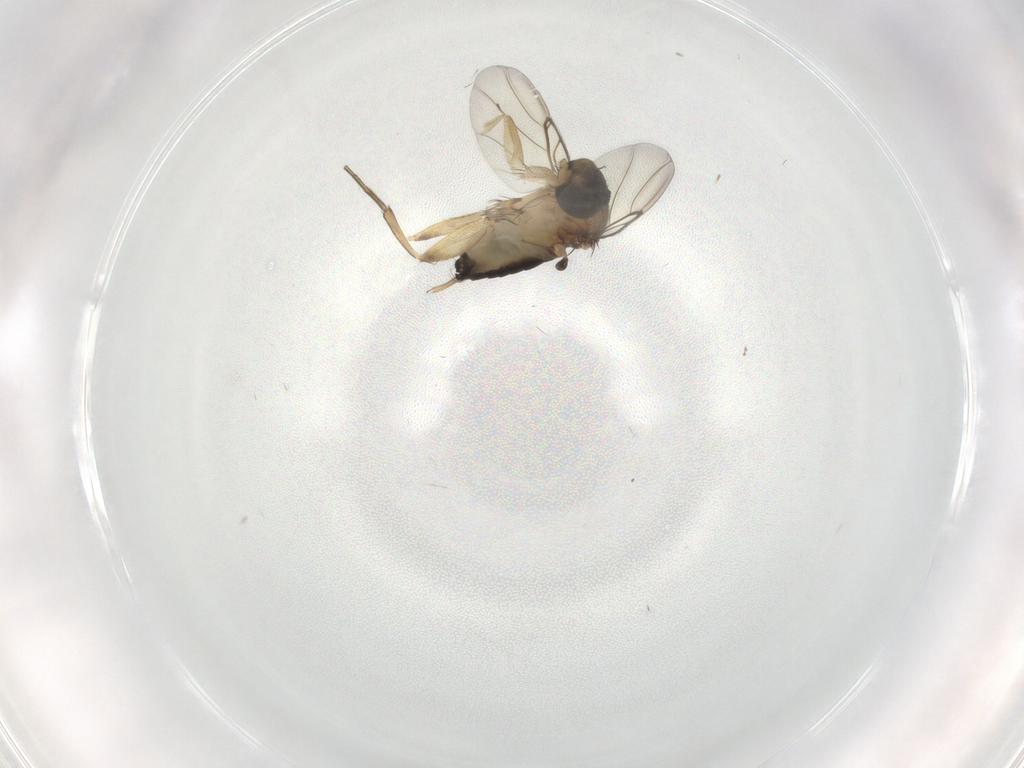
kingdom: Animalia
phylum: Arthropoda
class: Insecta
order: Diptera
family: Phoridae
